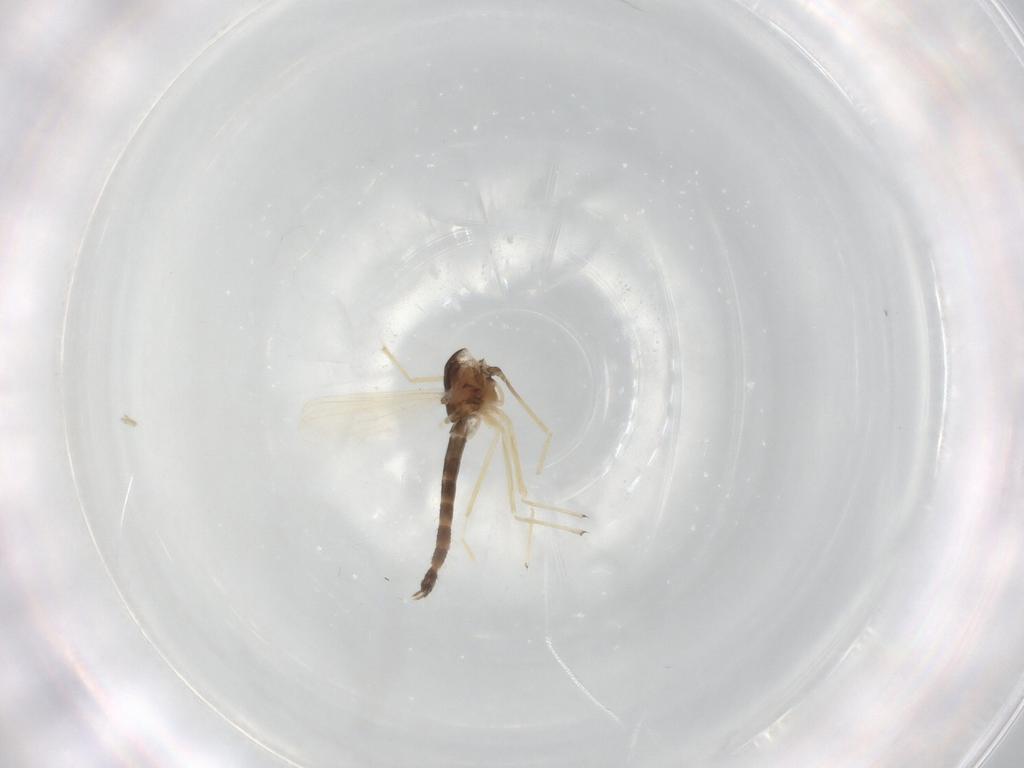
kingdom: Animalia
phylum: Arthropoda
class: Insecta
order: Diptera
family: Chironomidae
